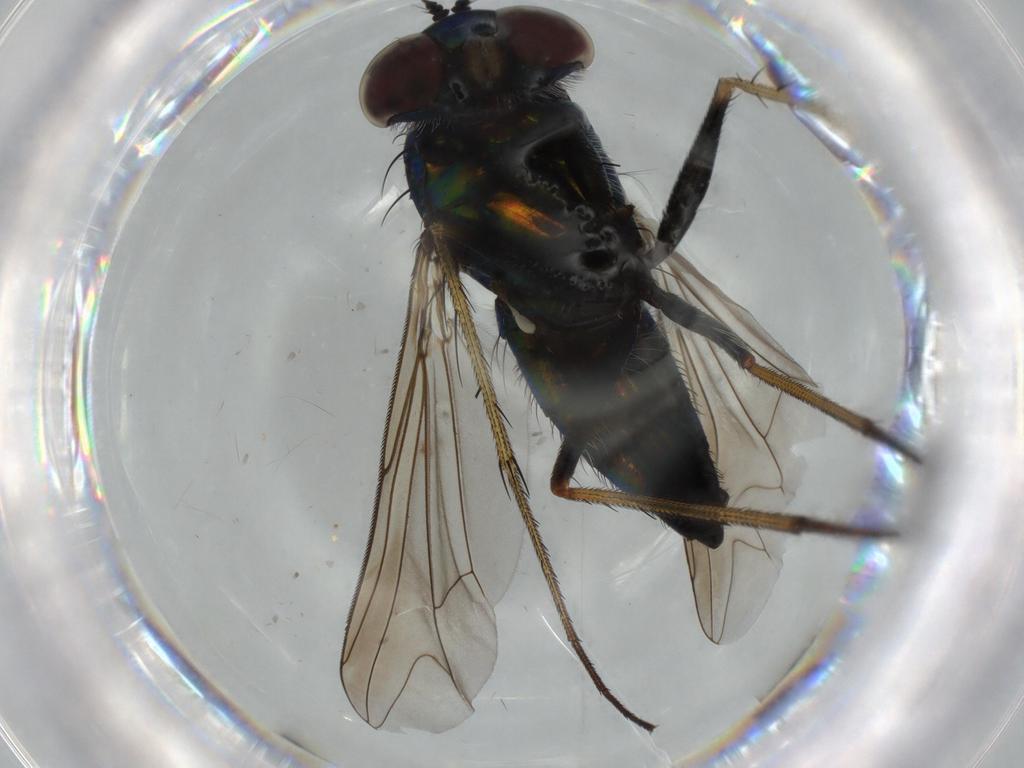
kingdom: Animalia
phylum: Arthropoda
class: Insecta
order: Diptera
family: Dolichopodidae
